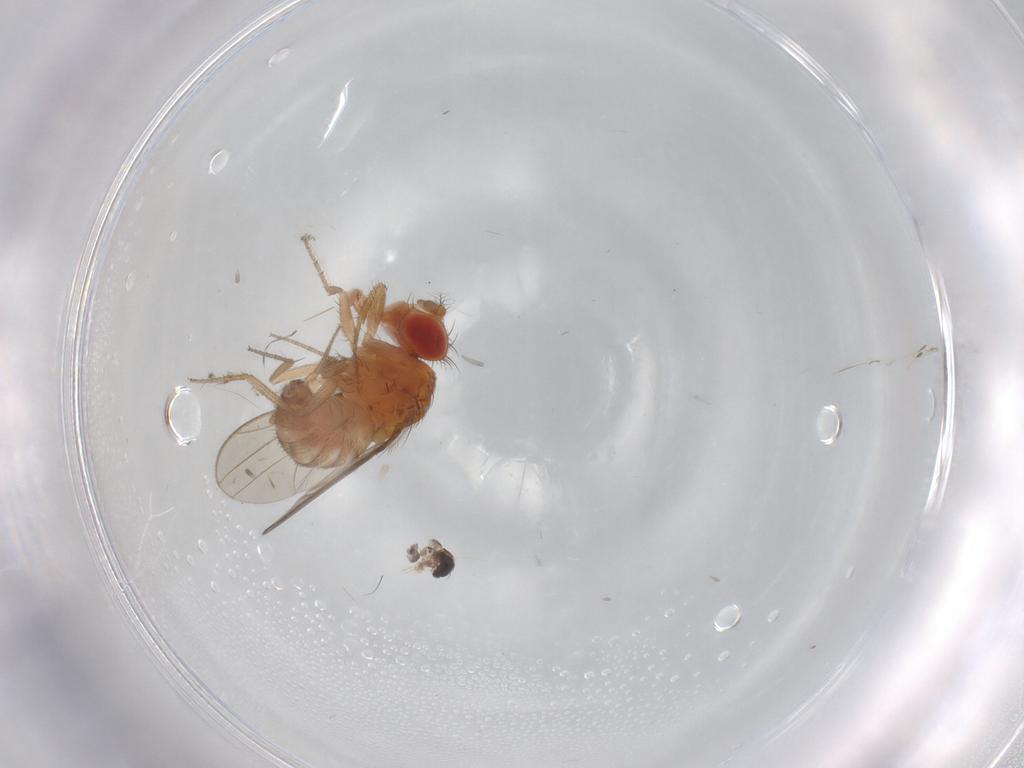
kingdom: Animalia
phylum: Arthropoda
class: Insecta
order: Diptera
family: Drosophilidae
